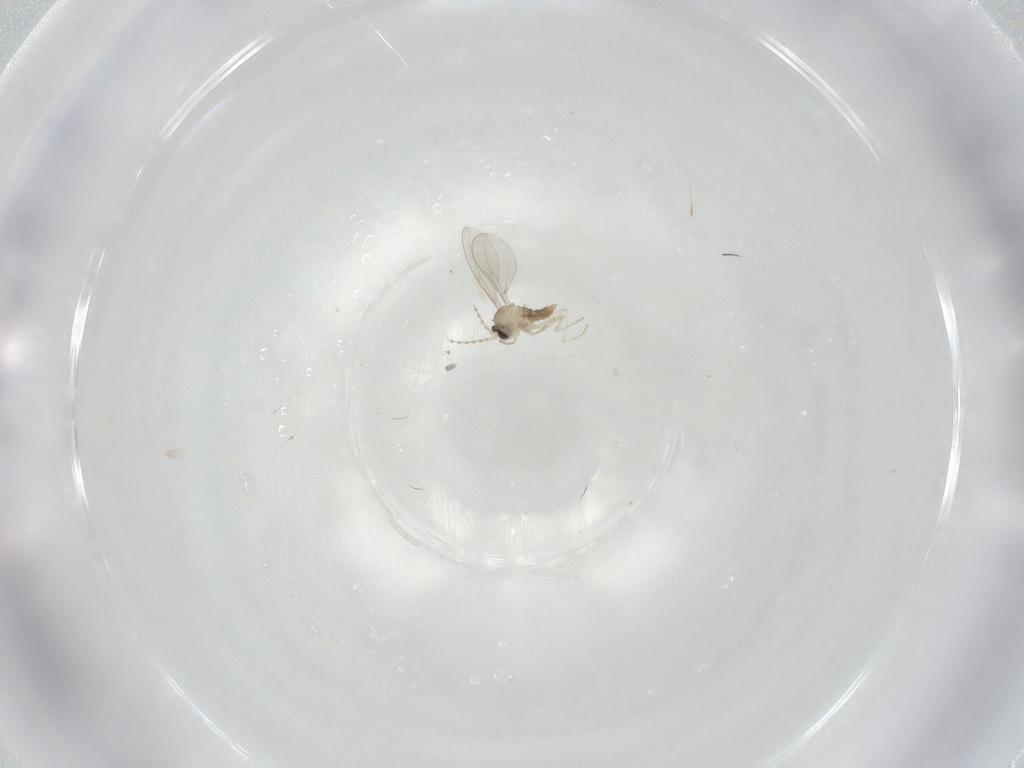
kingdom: Animalia
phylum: Arthropoda
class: Insecta
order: Diptera
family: Cecidomyiidae
